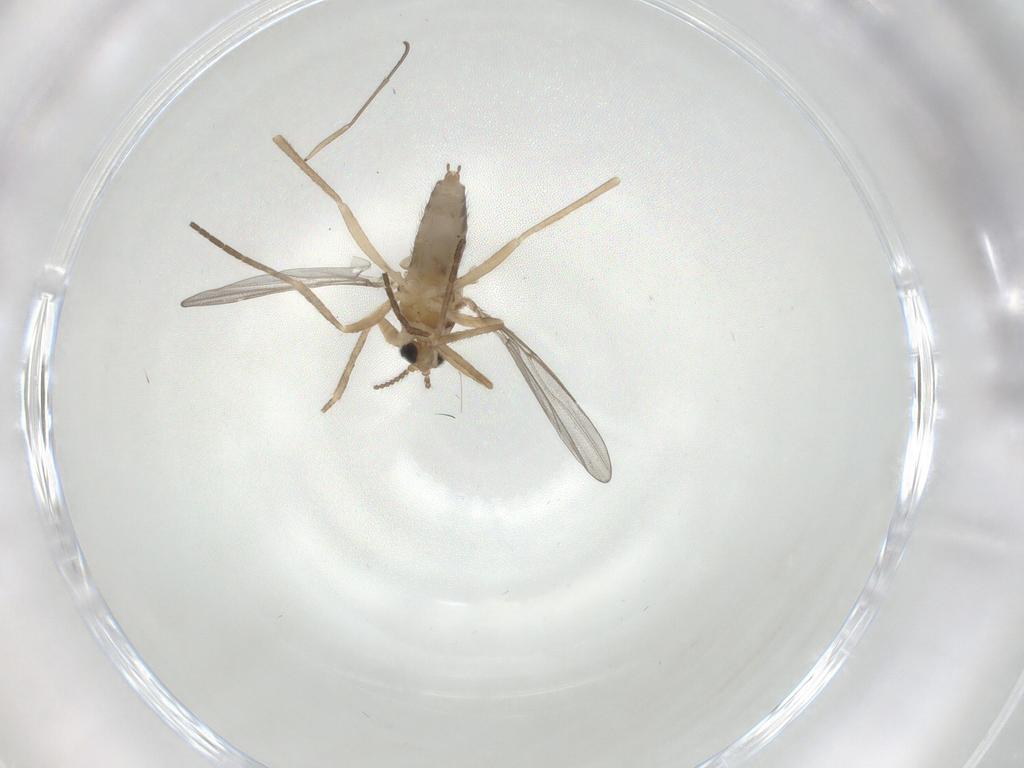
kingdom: Animalia
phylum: Arthropoda
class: Insecta
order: Diptera
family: Cecidomyiidae
